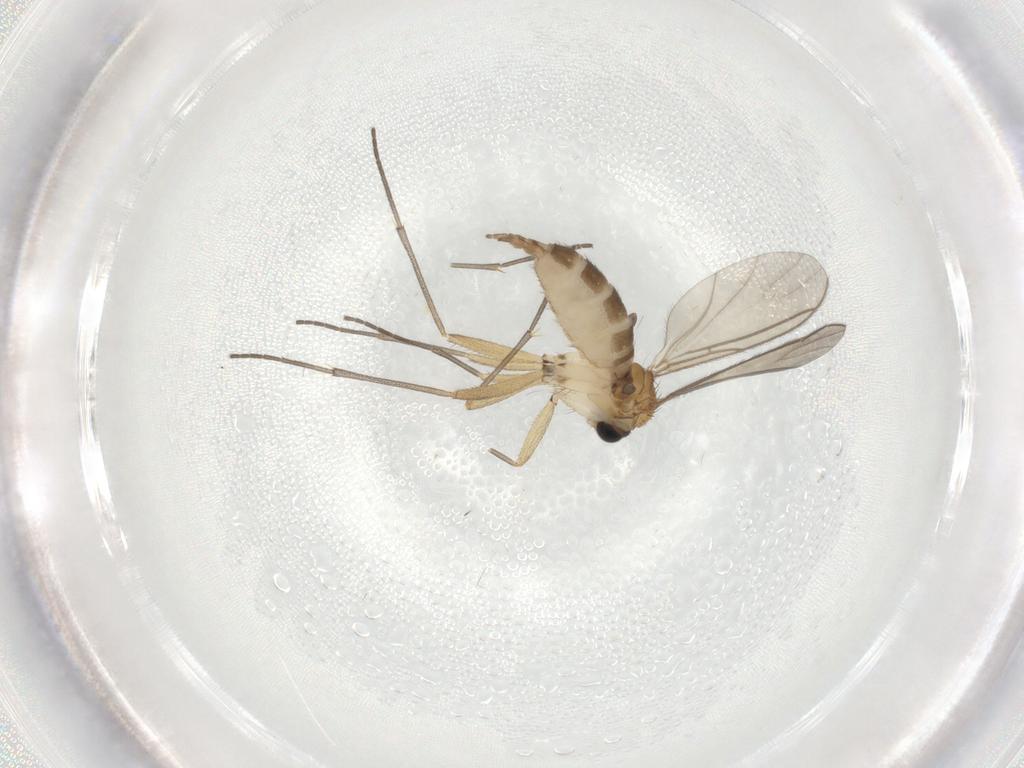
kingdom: Animalia
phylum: Arthropoda
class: Insecta
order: Diptera
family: Sciaridae
